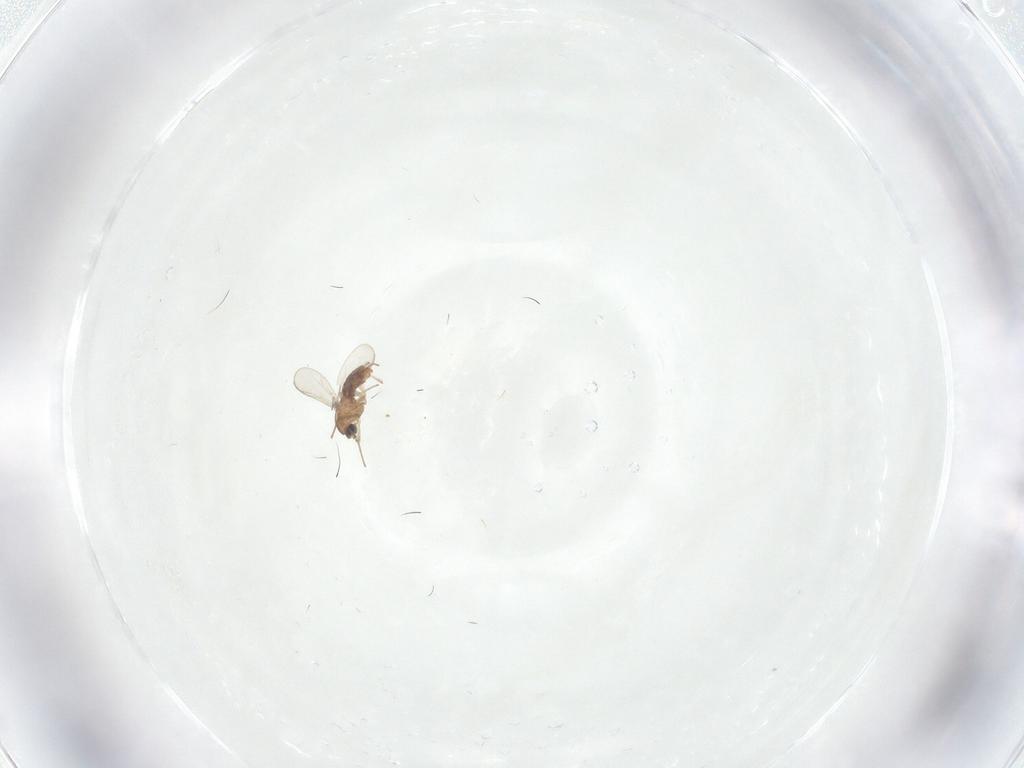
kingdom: Animalia
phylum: Arthropoda
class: Insecta
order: Diptera
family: Chironomidae
